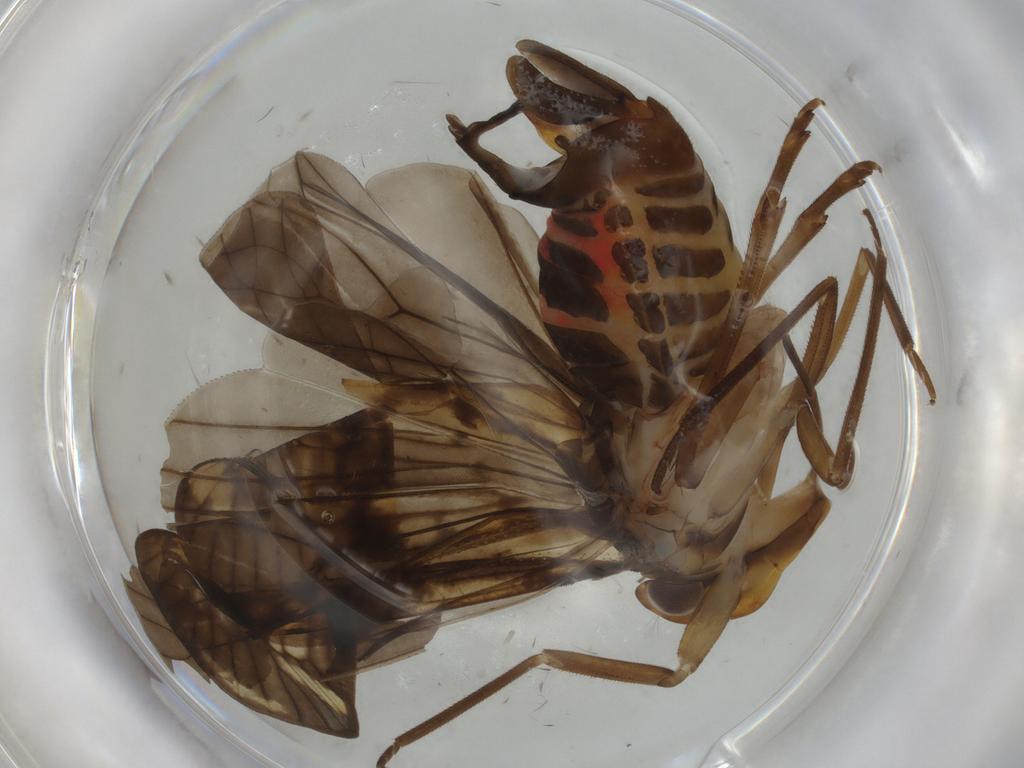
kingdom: Animalia
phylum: Arthropoda
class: Insecta
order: Hemiptera
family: Cixiidae
